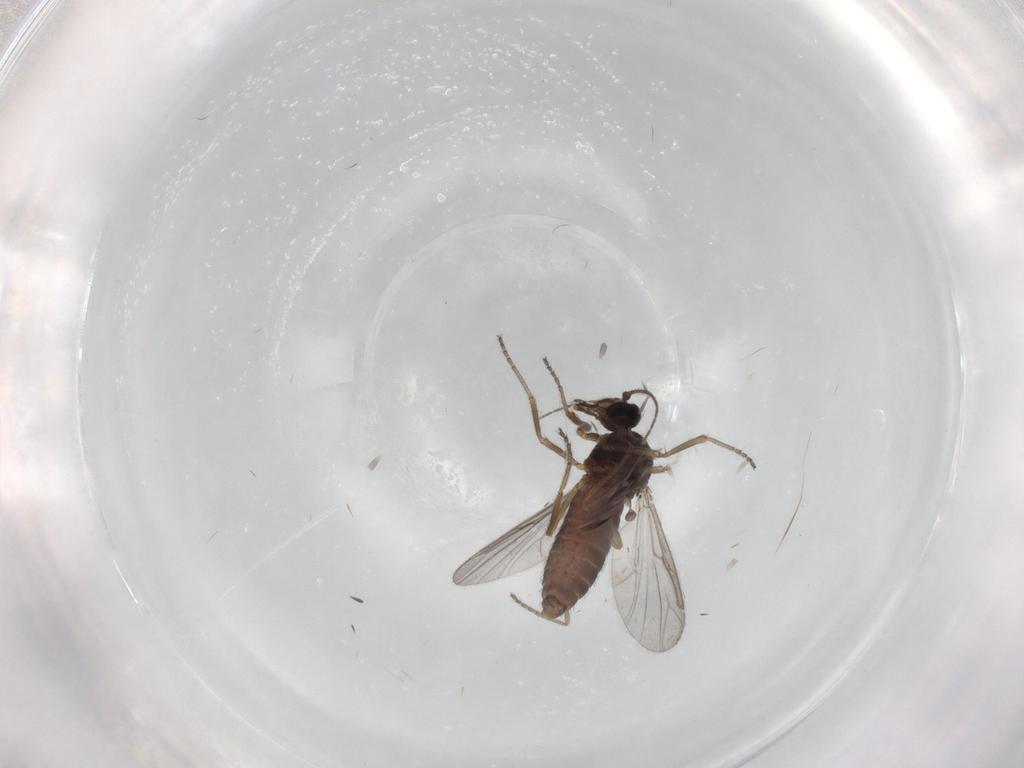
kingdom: Animalia
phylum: Arthropoda
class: Insecta
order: Diptera
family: Ceratopogonidae
